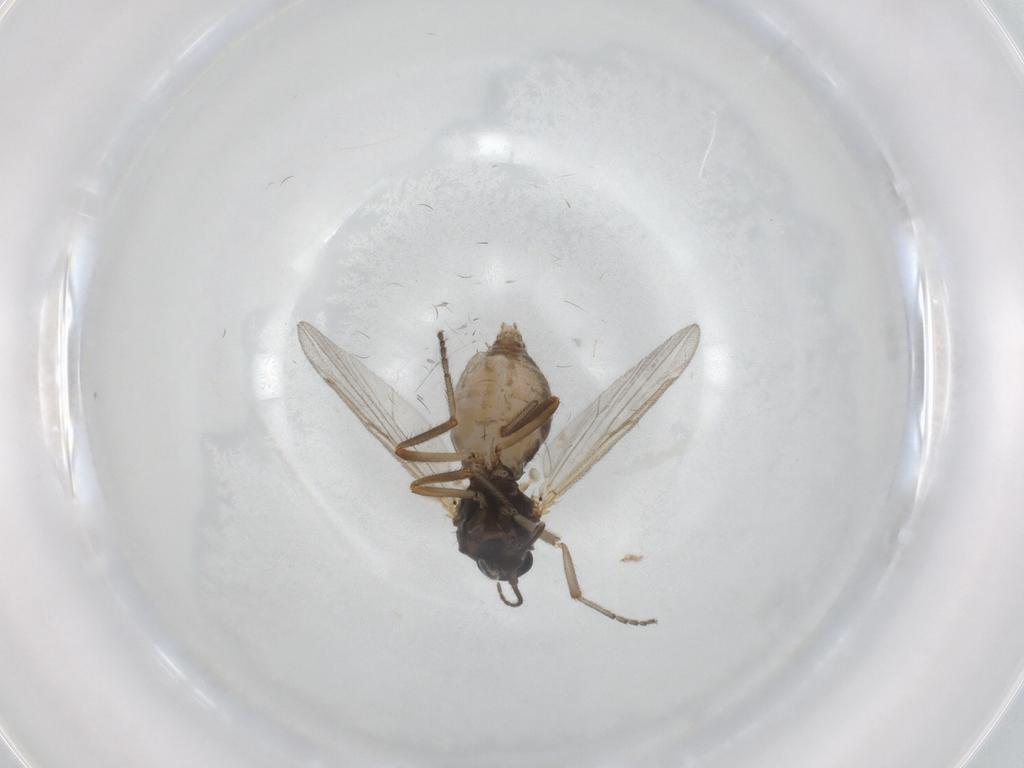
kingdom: Animalia
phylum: Arthropoda
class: Insecta
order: Diptera
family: Ceratopogonidae
